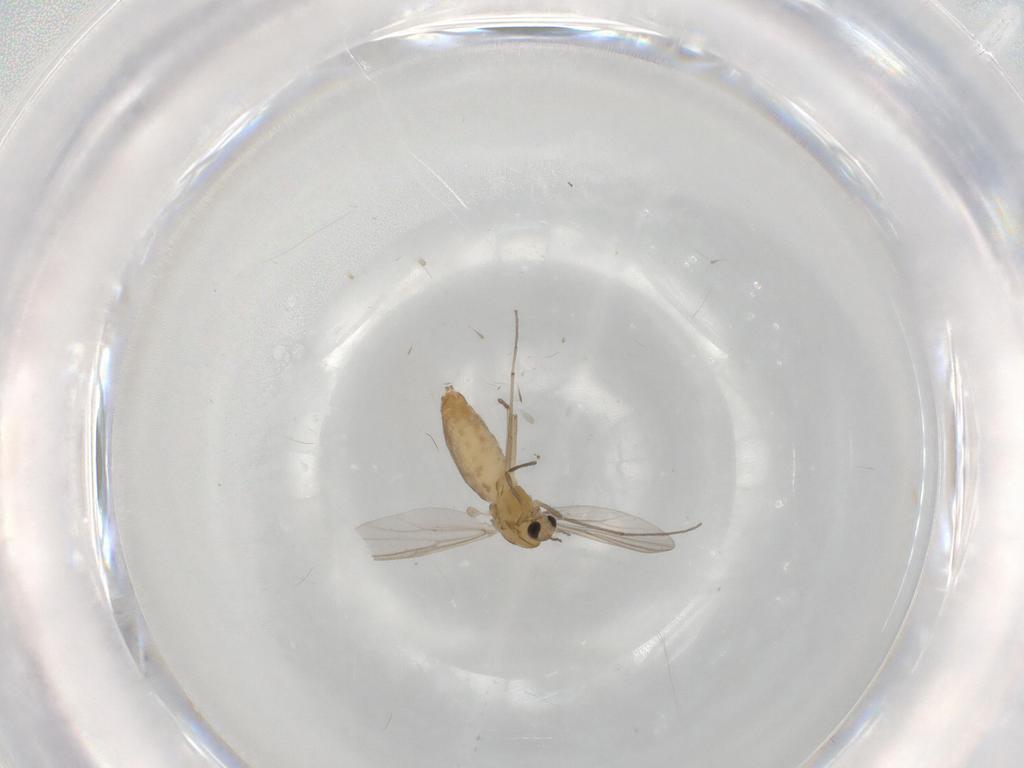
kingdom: Animalia
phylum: Arthropoda
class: Insecta
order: Diptera
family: Chironomidae
